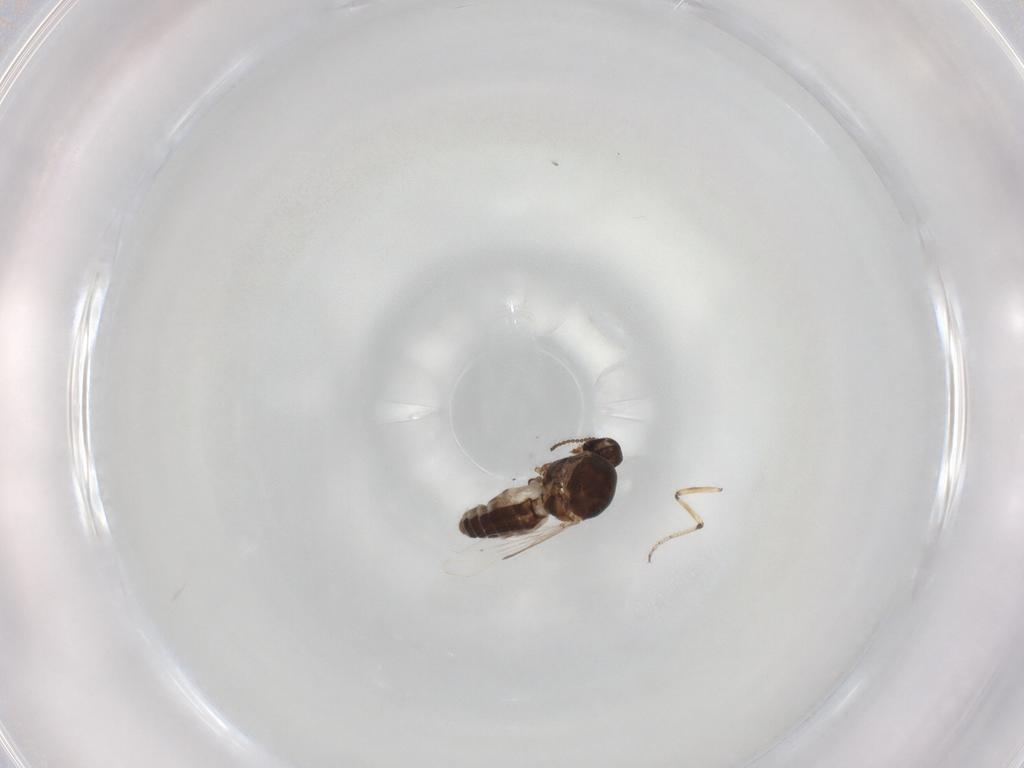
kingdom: Animalia
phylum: Arthropoda
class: Insecta
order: Diptera
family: Ceratopogonidae
